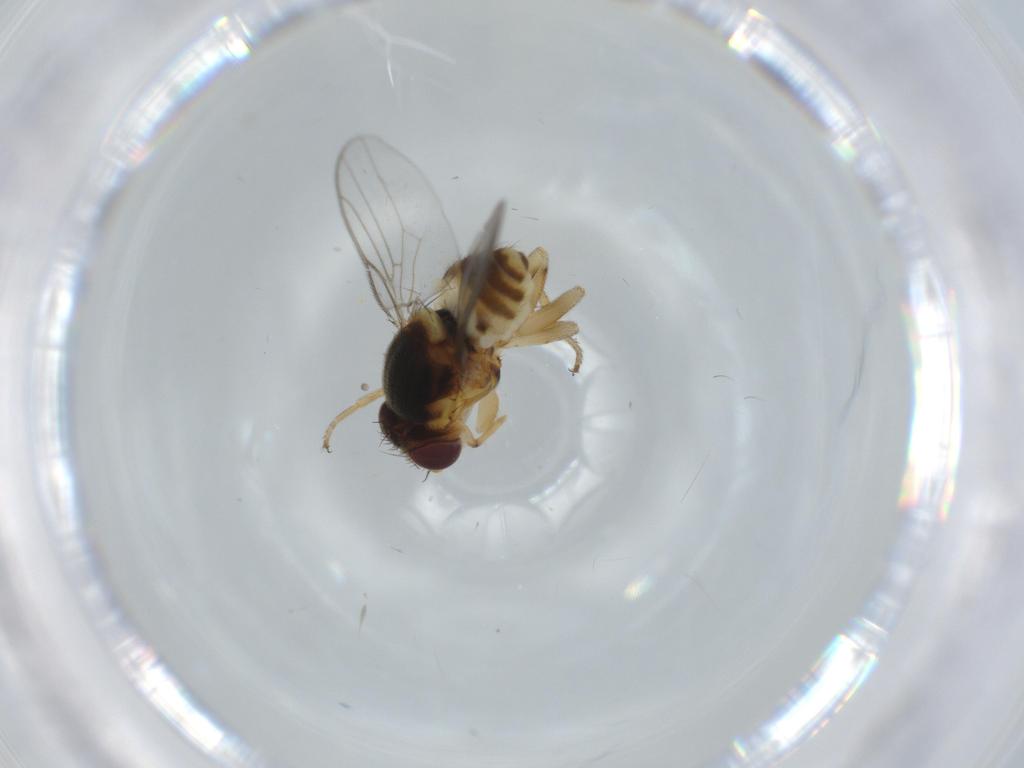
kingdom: Animalia
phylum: Arthropoda
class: Insecta
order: Diptera
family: Chloropidae
